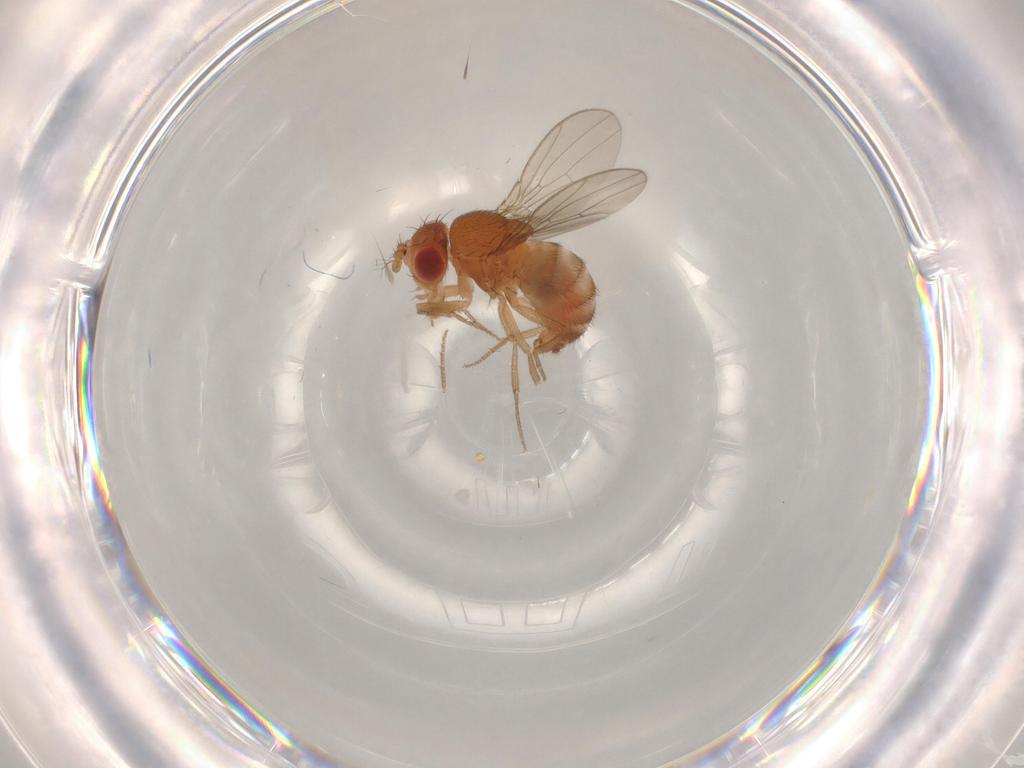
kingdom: Animalia
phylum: Arthropoda
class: Insecta
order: Diptera
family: Drosophilidae
